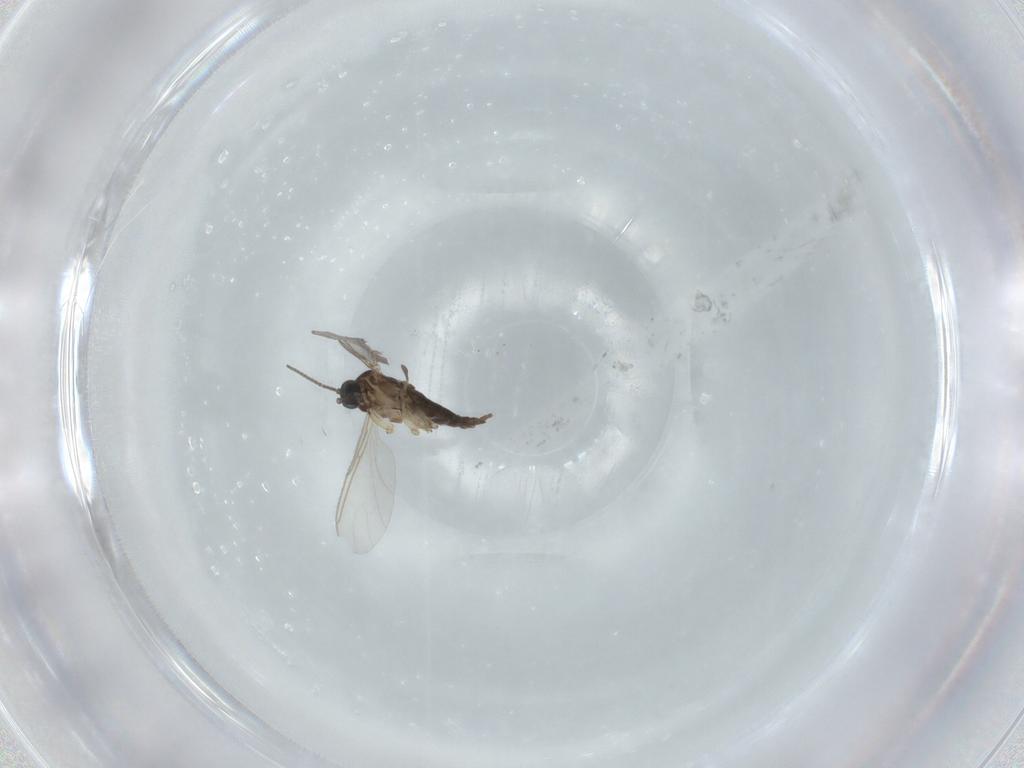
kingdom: Animalia
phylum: Arthropoda
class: Insecta
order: Diptera
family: Sciaridae
